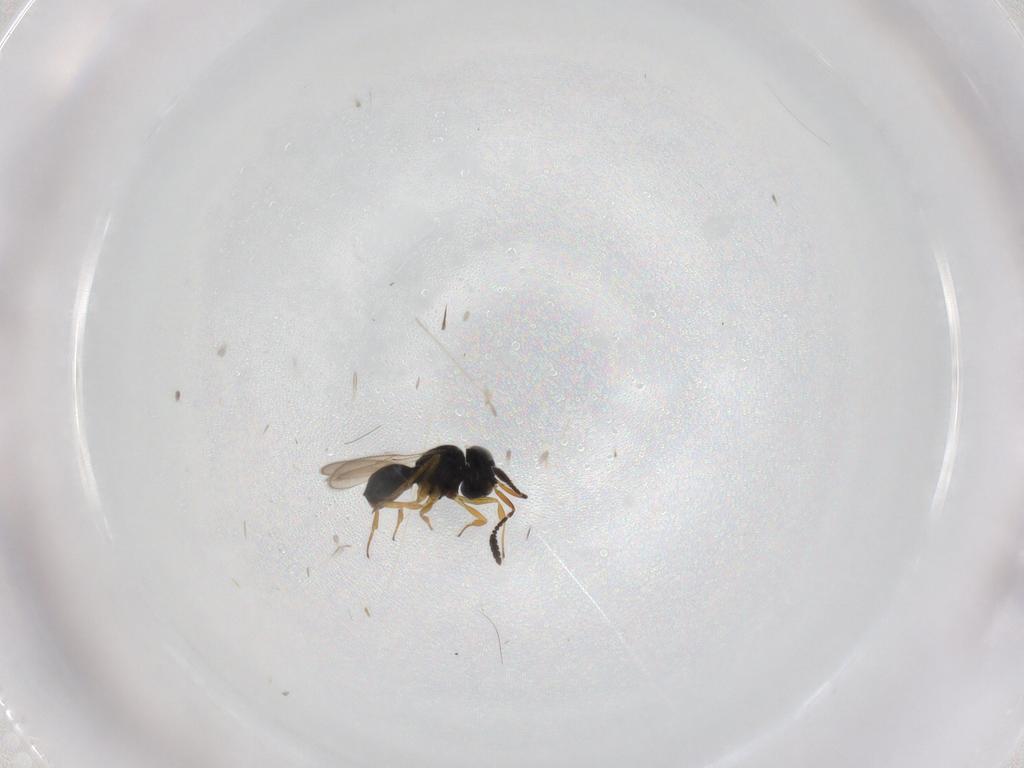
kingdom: Animalia
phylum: Arthropoda
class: Insecta
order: Hymenoptera
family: Scelionidae
